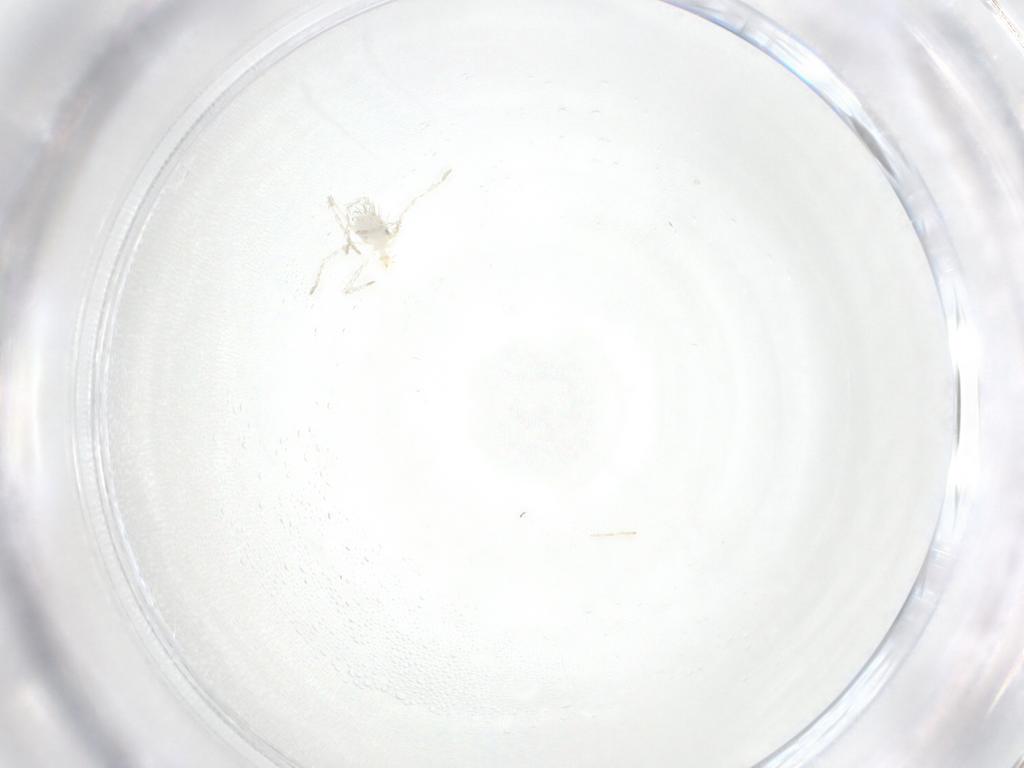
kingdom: Animalia
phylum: Arthropoda
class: Arachnida
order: Trombidiformes
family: Erythraeidae
